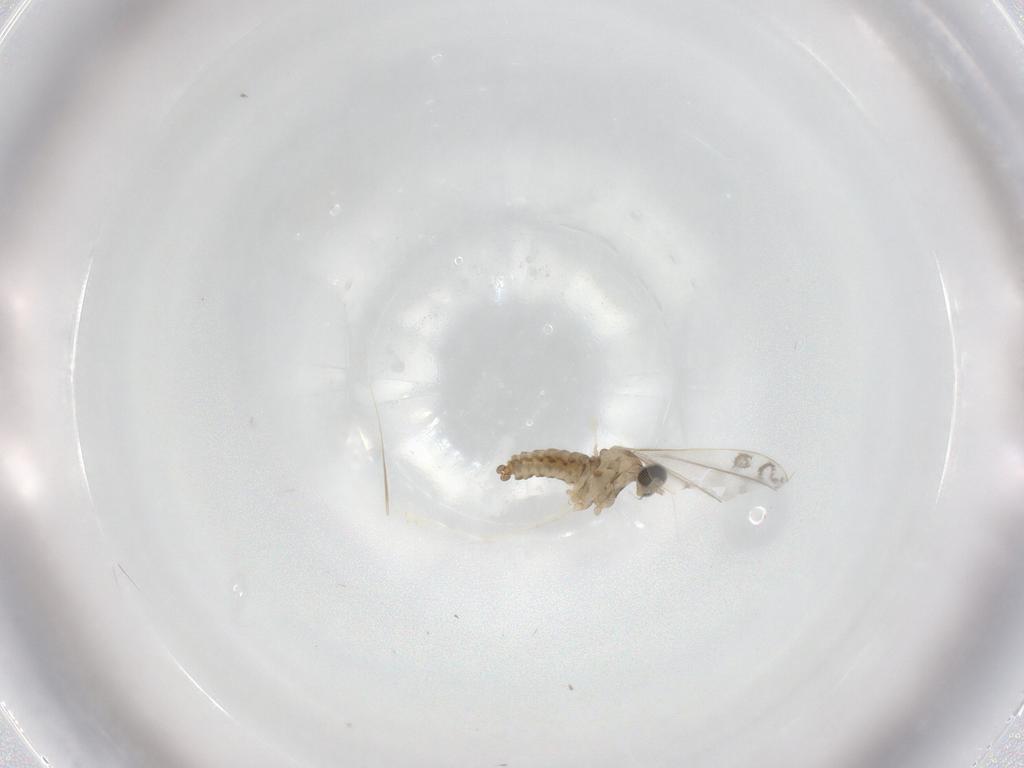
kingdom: Animalia
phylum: Arthropoda
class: Insecta
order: Diptera
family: Cecidomyiidae
